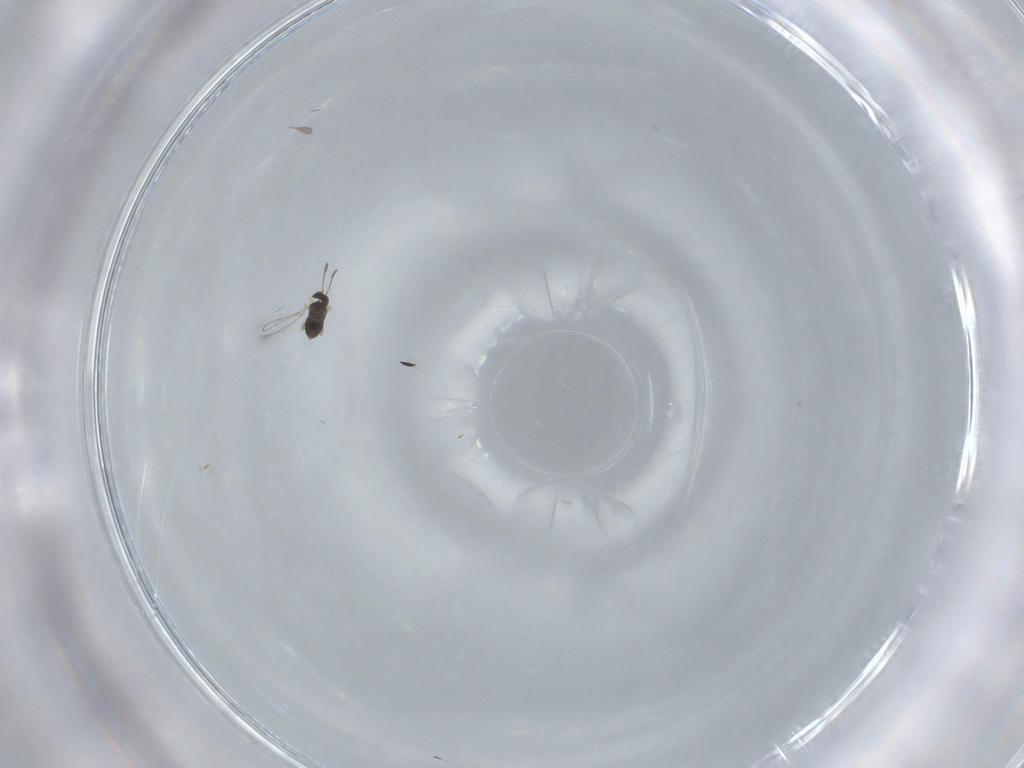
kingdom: Animalia
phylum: Arthropoda
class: Insecta
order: Hymenoptera
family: Mymaridae
